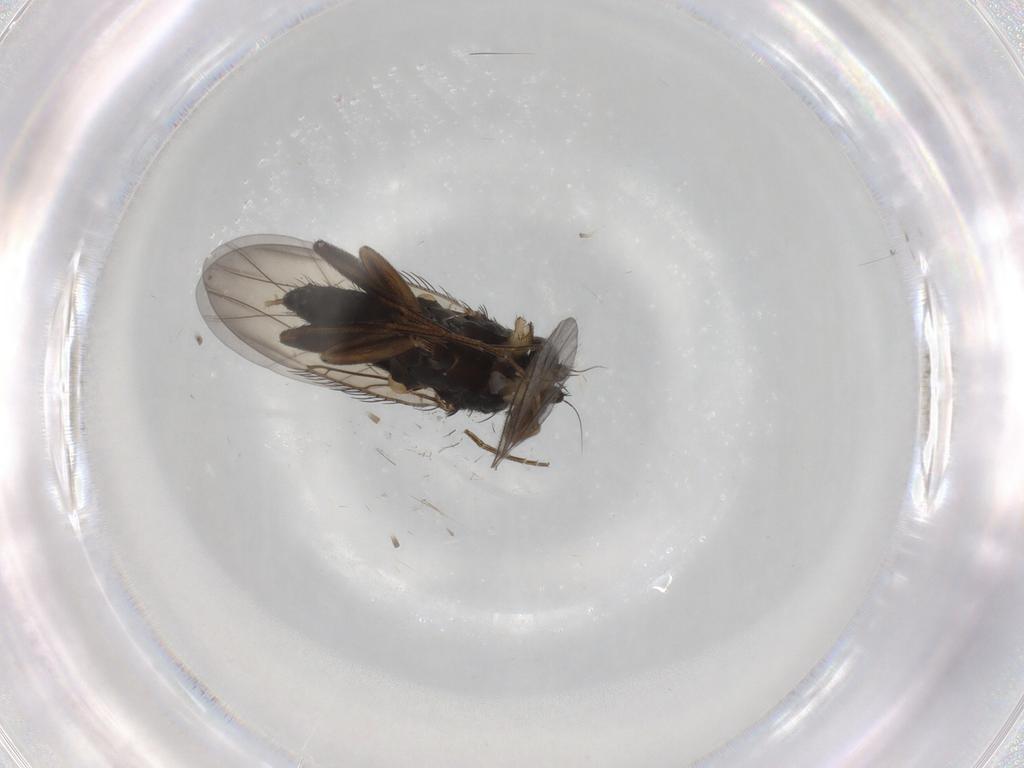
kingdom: Animalia
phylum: Arthropoda
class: Insecta
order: Diptera
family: Phoridae
